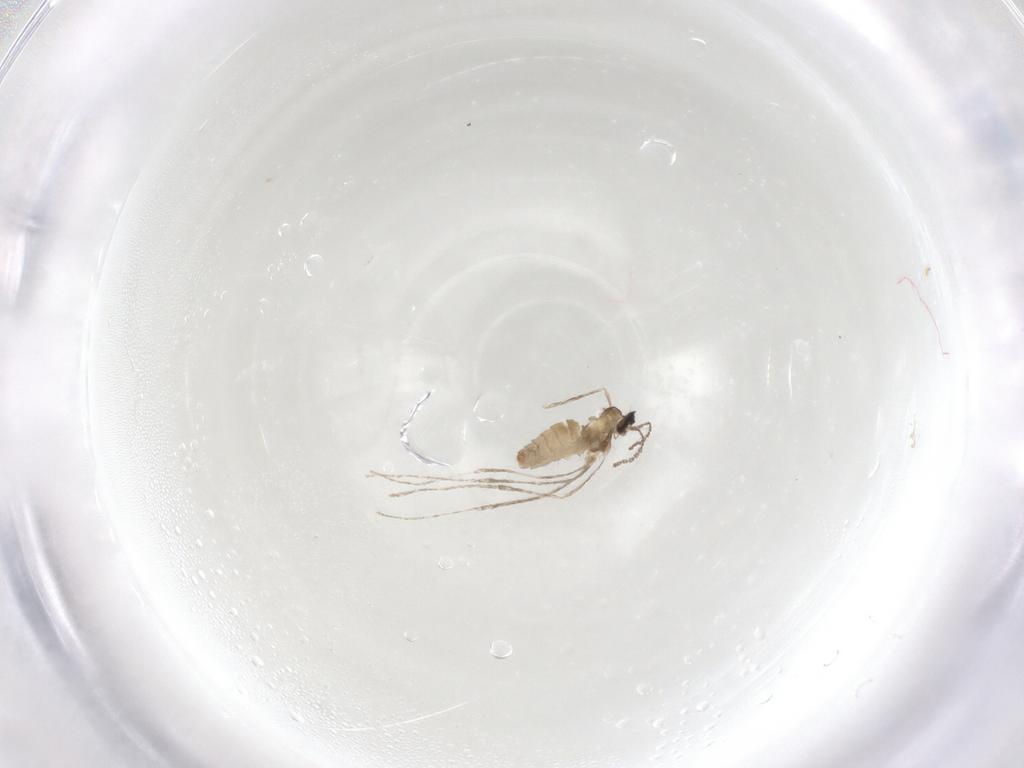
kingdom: Animalia
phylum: Arthropoda
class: Insecta
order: Diptera
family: Cecidomyiidae
